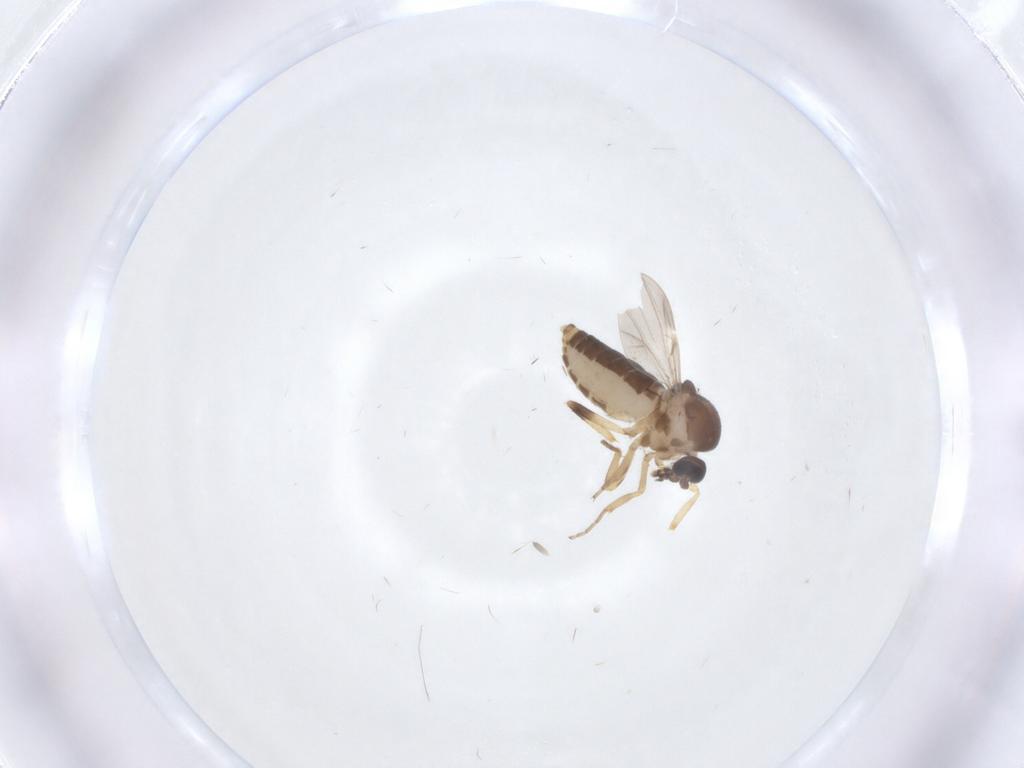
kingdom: Animalia
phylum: Arthropoda
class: Insecta
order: Diptera
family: Ceratopogonidae
